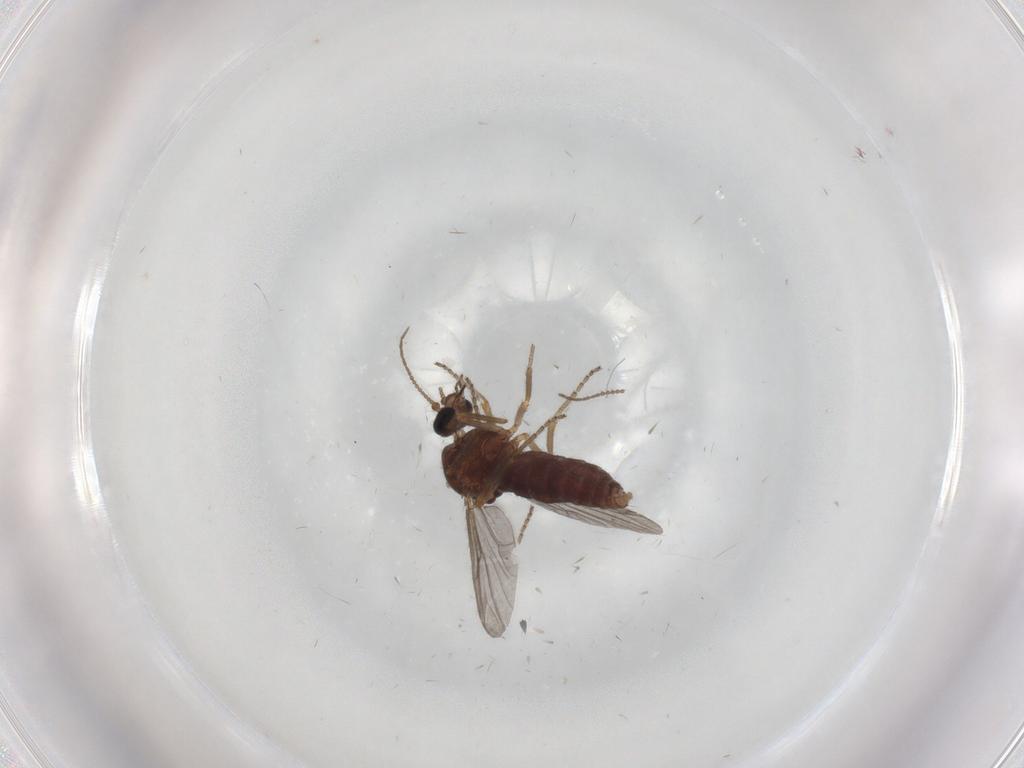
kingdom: Animalia
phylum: Arthropoda
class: Insecta
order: Diptera
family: Ceratopogonidae
